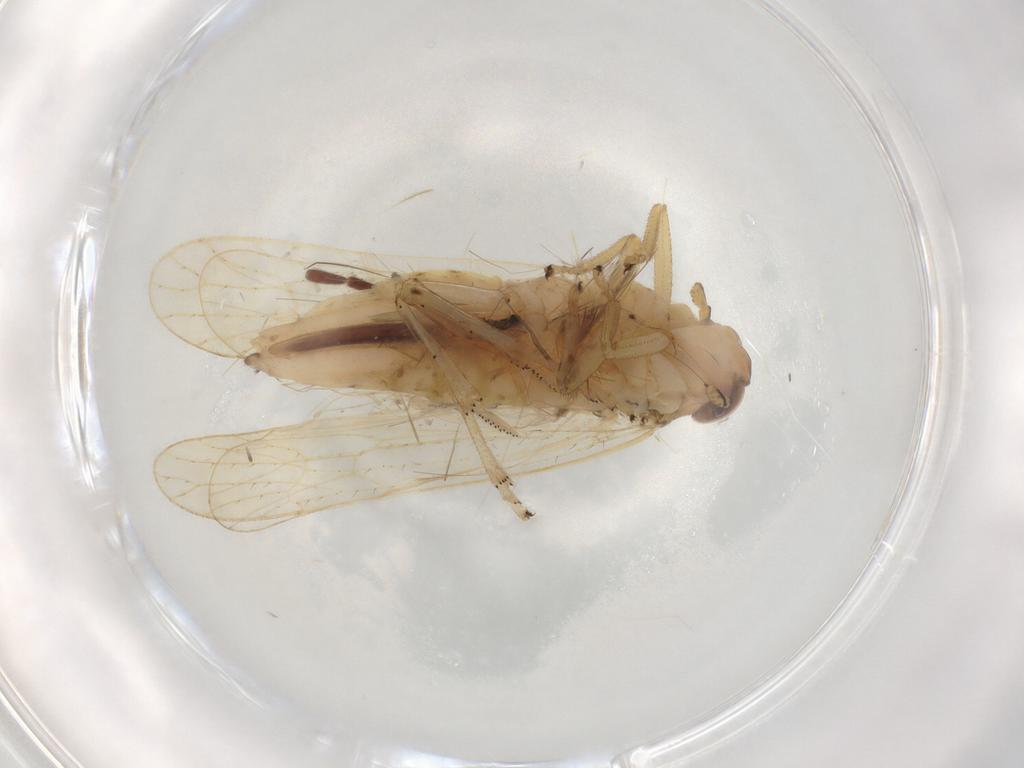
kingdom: Animalia
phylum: Arthropoda
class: Insecta
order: Hemiptera
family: Delphacidae
